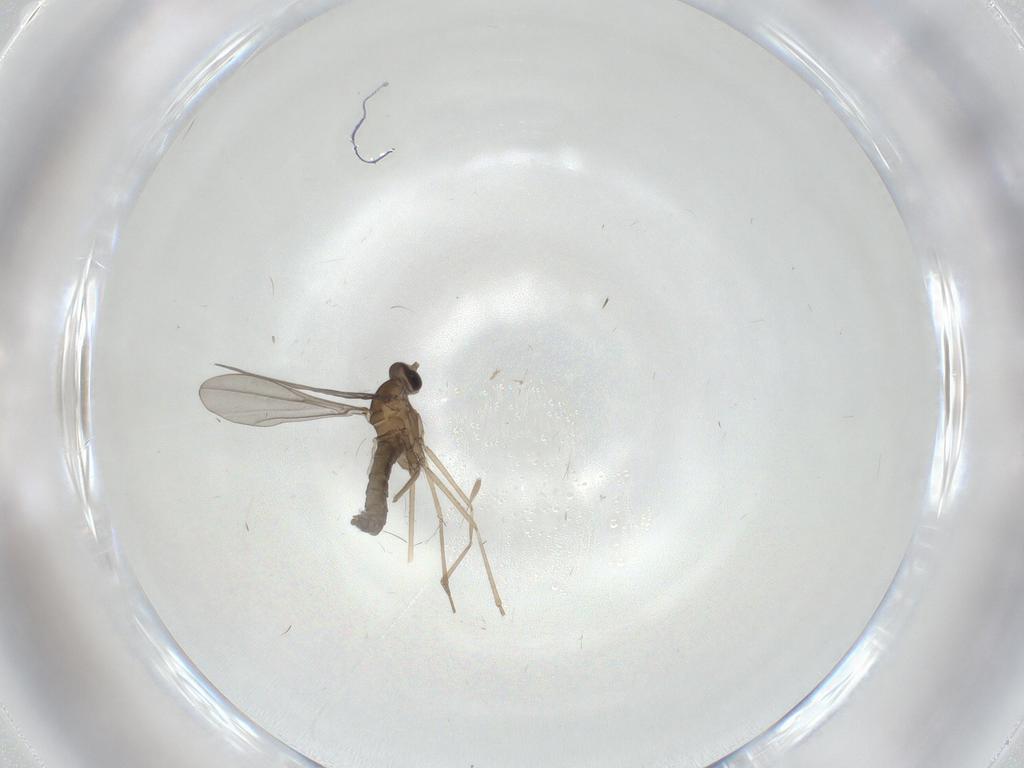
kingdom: Animalia
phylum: Arthropoda
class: Insecta
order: Diptera
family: Cecidomyiidae
